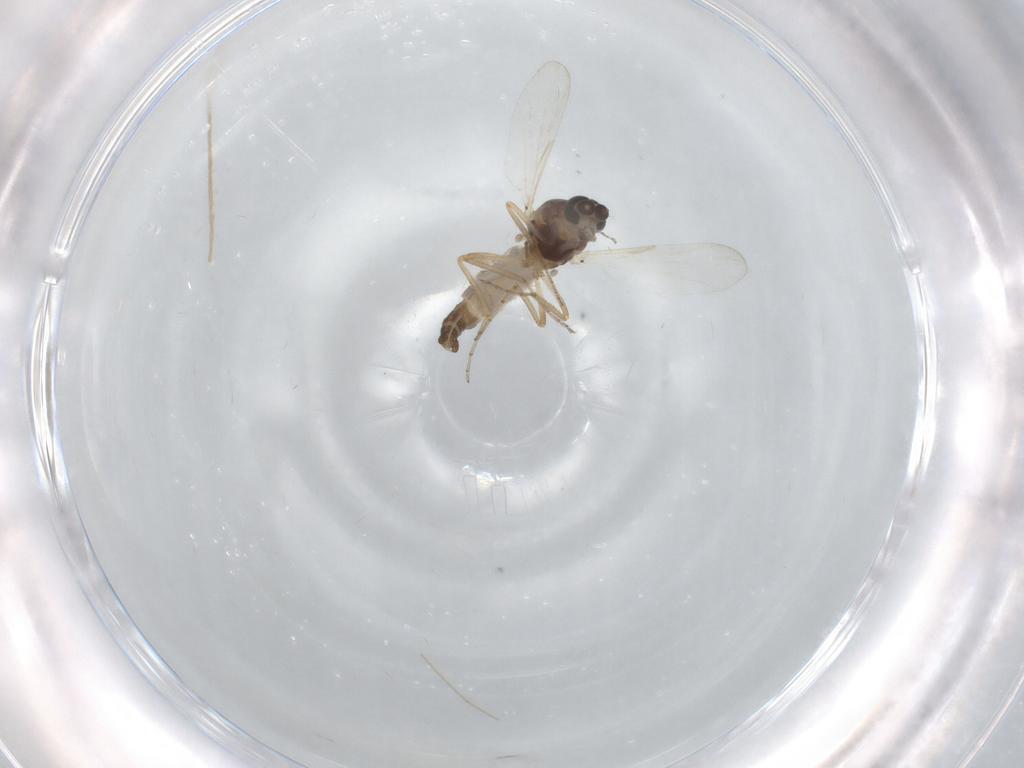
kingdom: Animalia
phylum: Arthropoda
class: Insecta
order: Diptera
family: Ceratopogonidae
